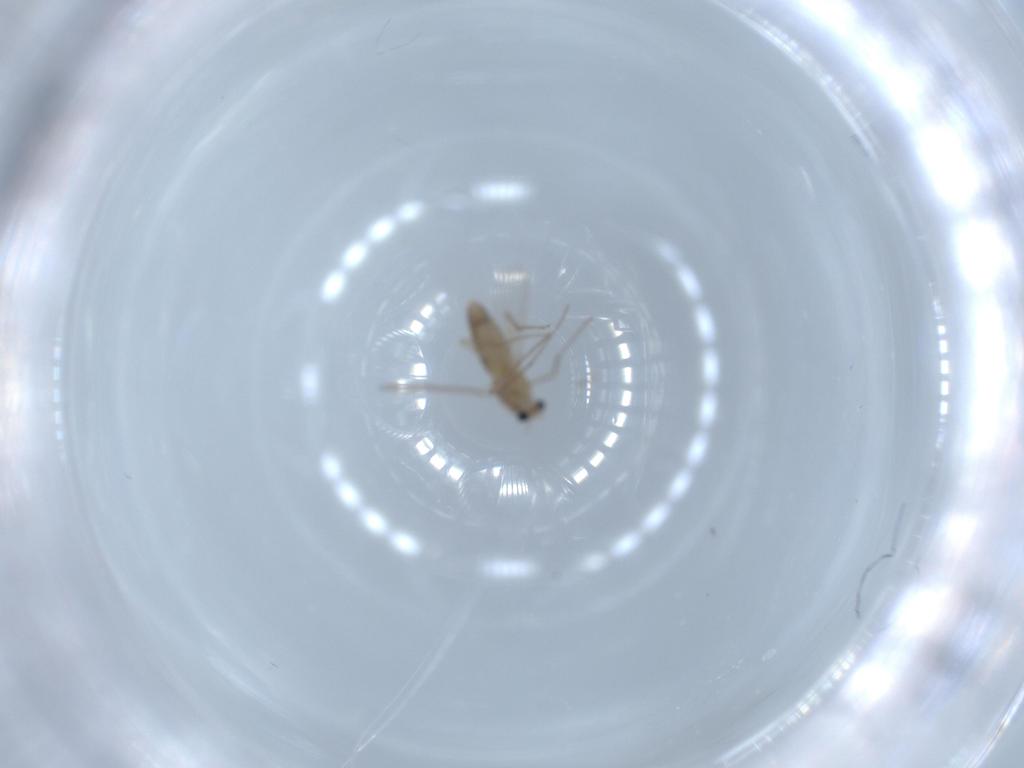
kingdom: Animalia
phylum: Arthropoda
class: Insecta
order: Diptera
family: Chironomidae
